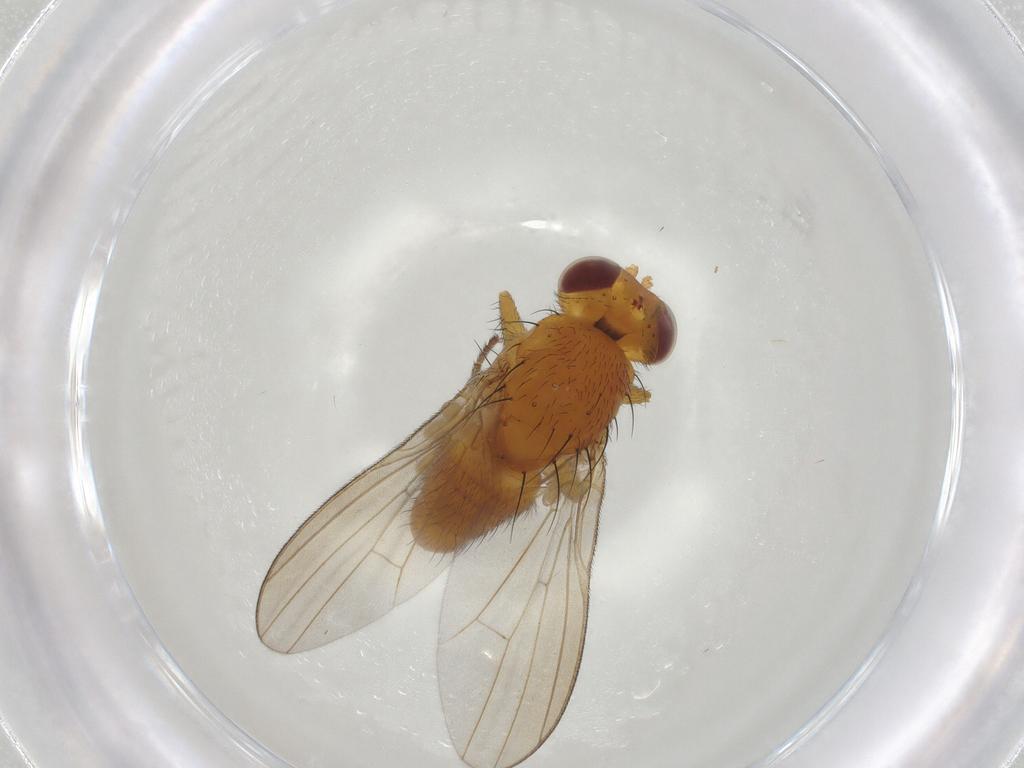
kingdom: Animalia
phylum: Arthropoda
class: Insecta
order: Diptera
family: Lauxaniidae
